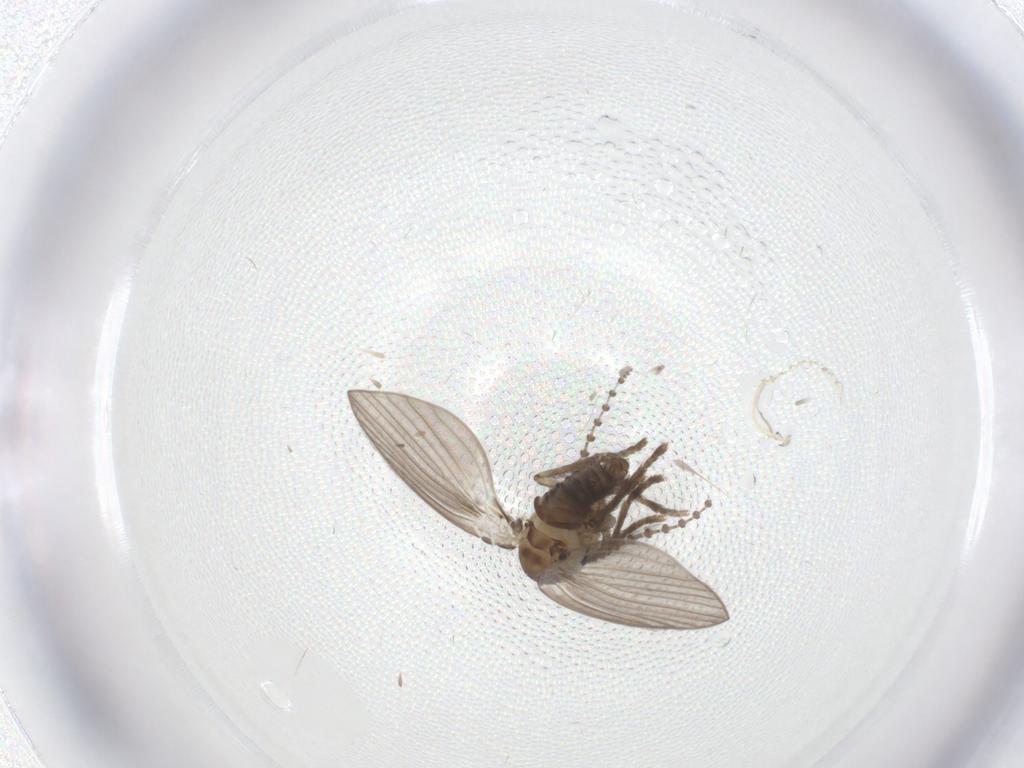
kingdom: Animalia
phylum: Arthropoda
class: Insecta
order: Diptera
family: Psychodidae
